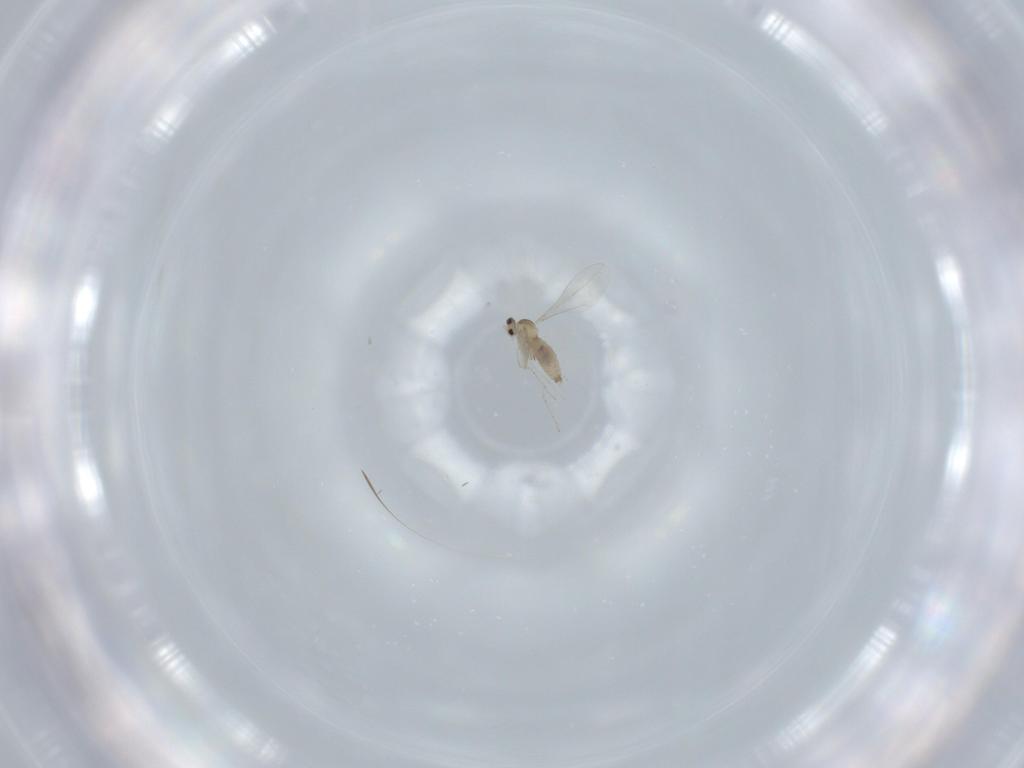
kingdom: Animalia
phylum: Arthropoda
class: Insecta
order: Diptera
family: Cecidomyiidae
